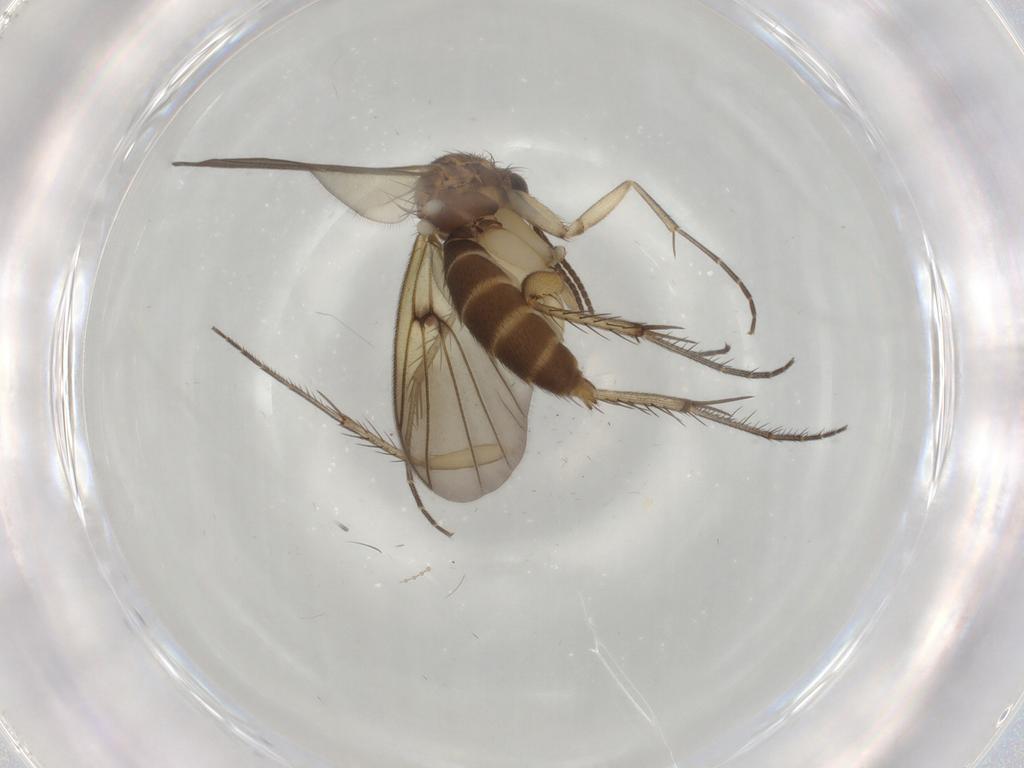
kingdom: Animalia
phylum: Arthropoda
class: Insecta
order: Diptera
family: Mycetophilidae
